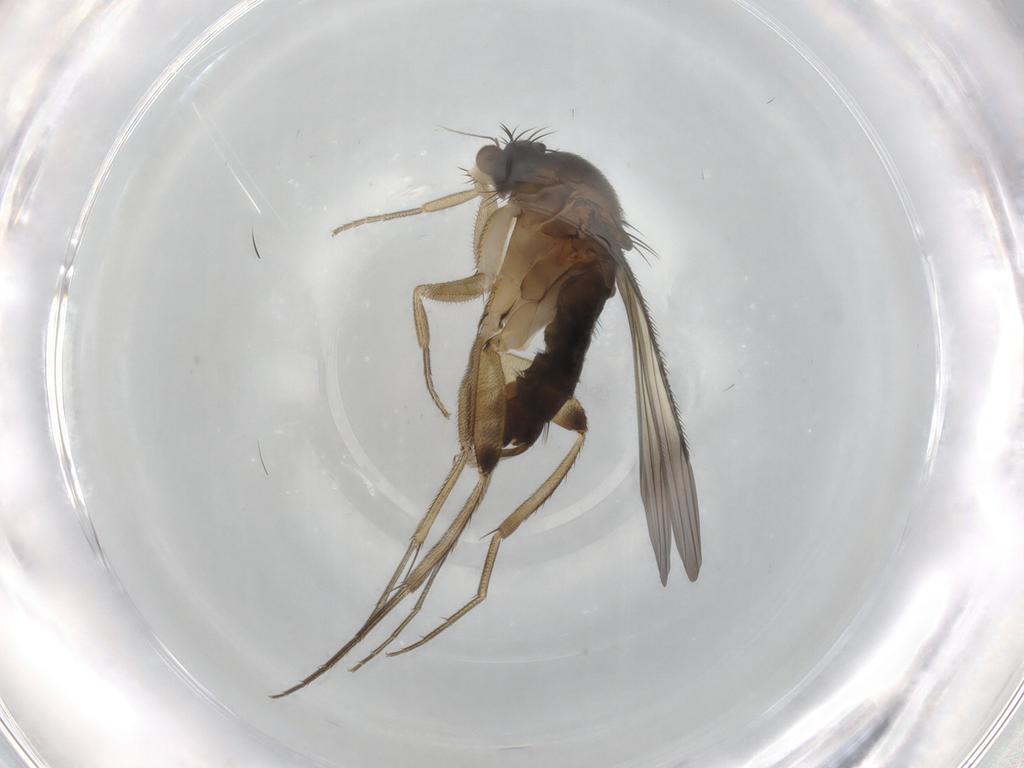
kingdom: Animalia
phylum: Arthropoda
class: Insecta
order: Diptera
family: Phoridae
